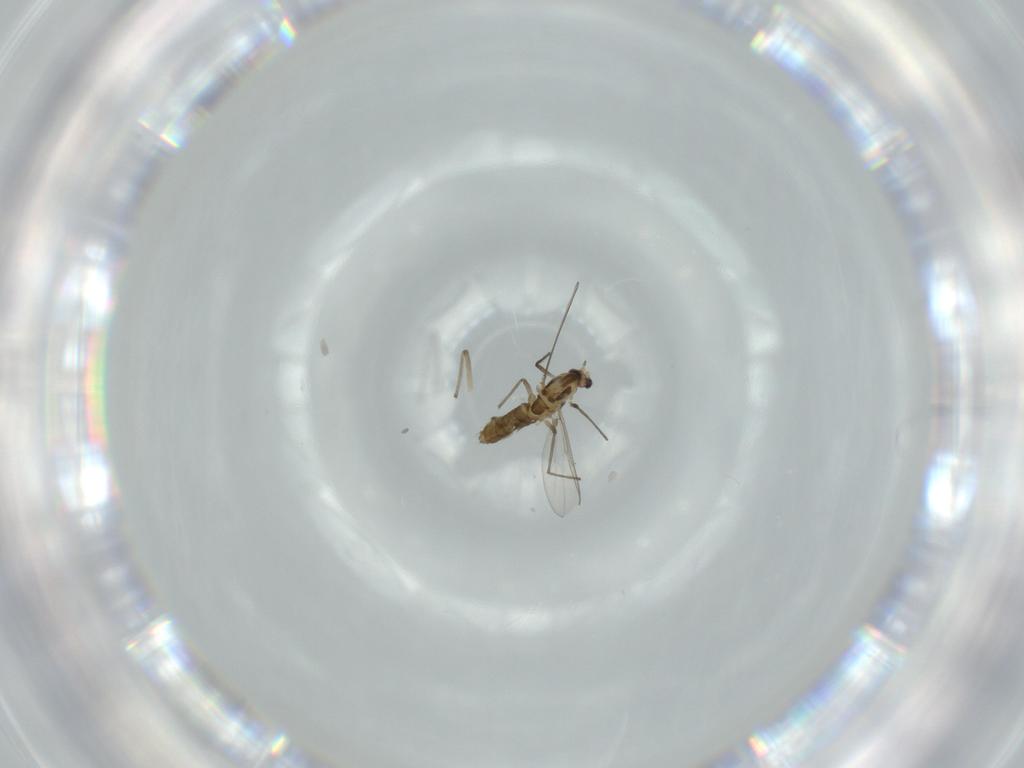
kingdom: Animalia
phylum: Arthropoda
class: Insecta
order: Diptera
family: Chironomidae
